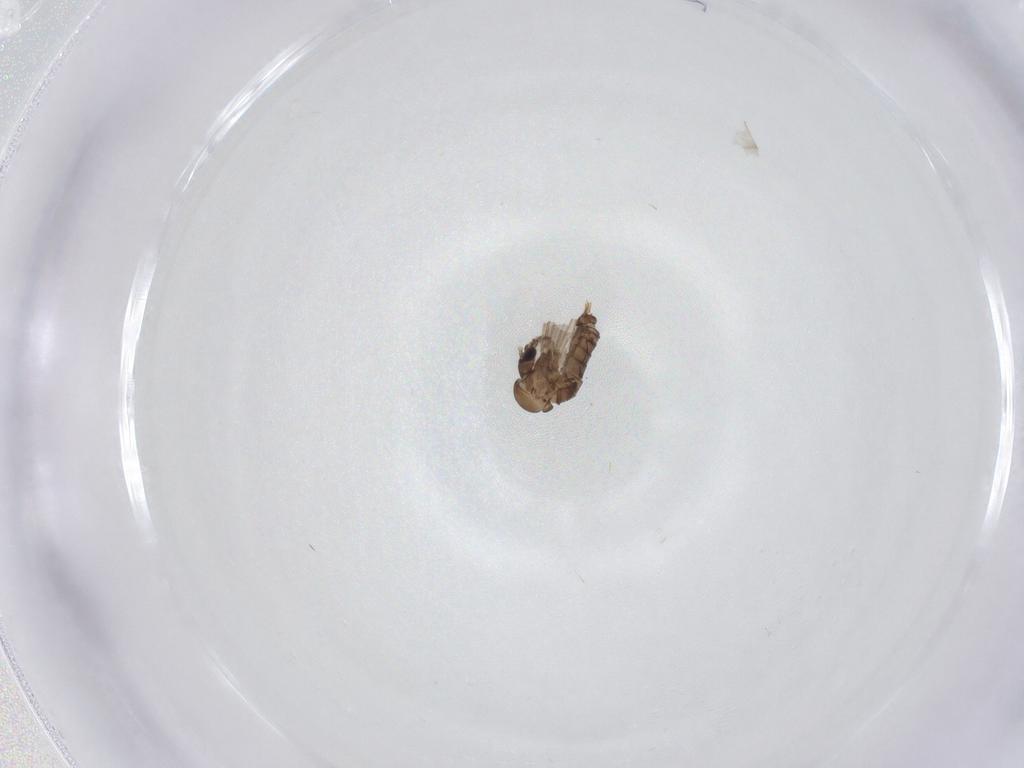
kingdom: Animalia
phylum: Arthropoda
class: Insecta
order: Diptera
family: Psychodidae
